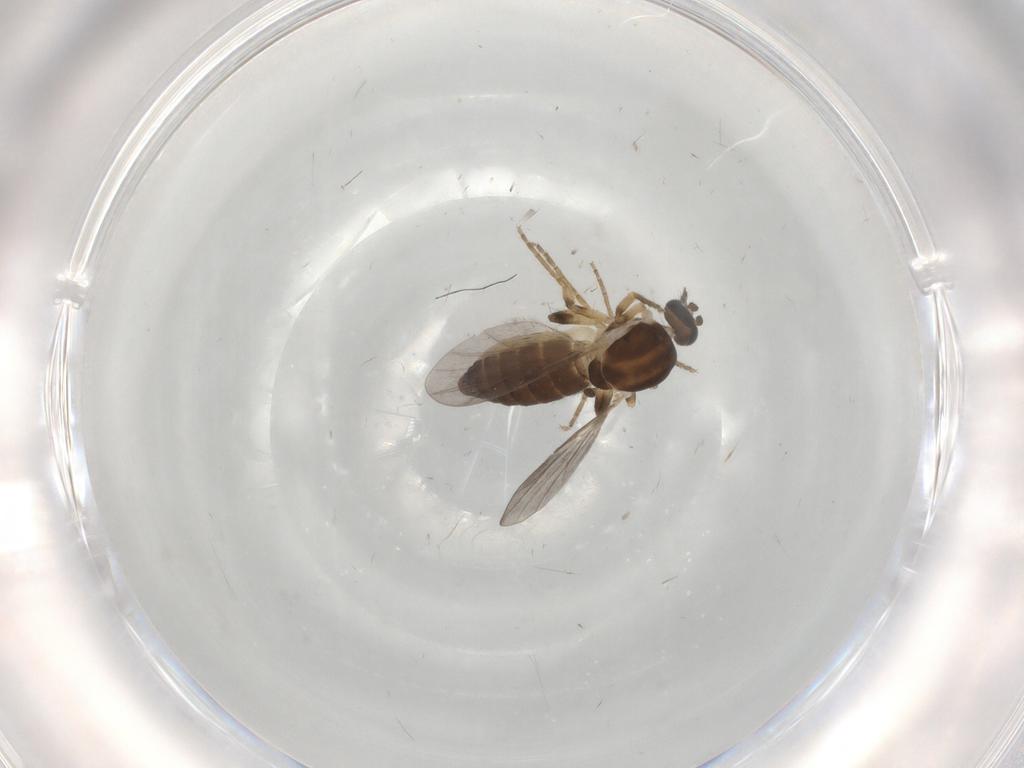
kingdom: Animalia
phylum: Arthropoda
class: Insecta
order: Diptera
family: Ceratopogonidae
